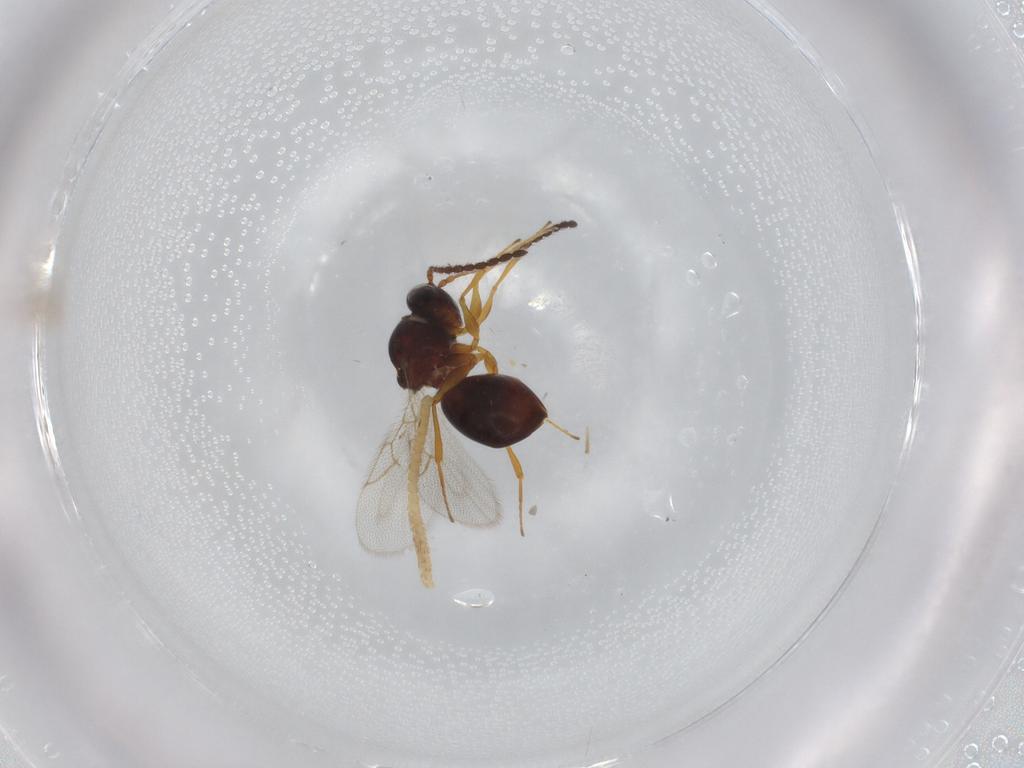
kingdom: Animalia
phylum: Arthropoda
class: Insecta
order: Hymenoptera
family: Figitidae
